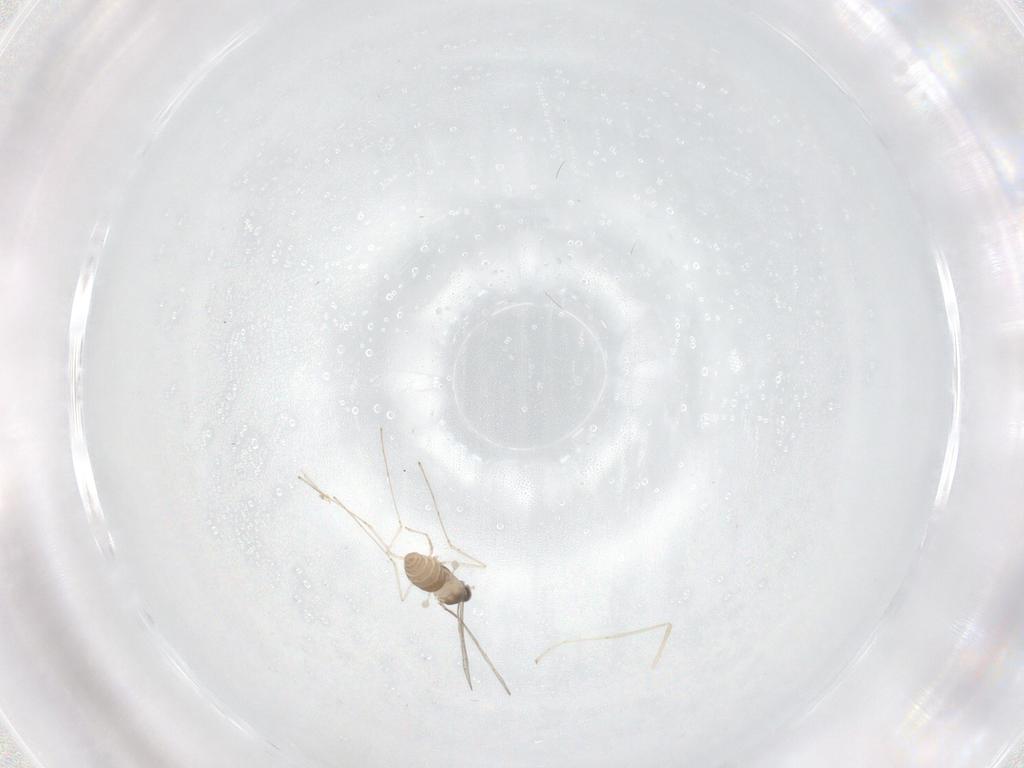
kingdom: Animalia
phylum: Arthropoda
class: Insecta
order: Diptera
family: Cecidomyiidae
